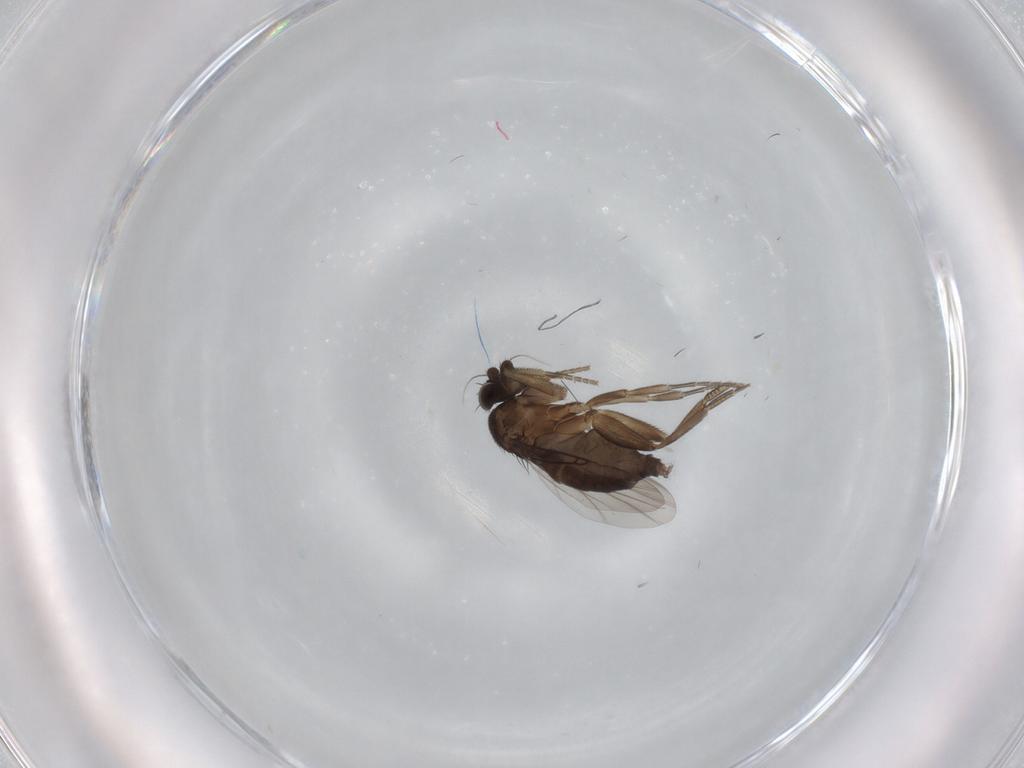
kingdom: Animalia
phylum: Arthropoda
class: Insecta
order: Diptera
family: Phoridae
